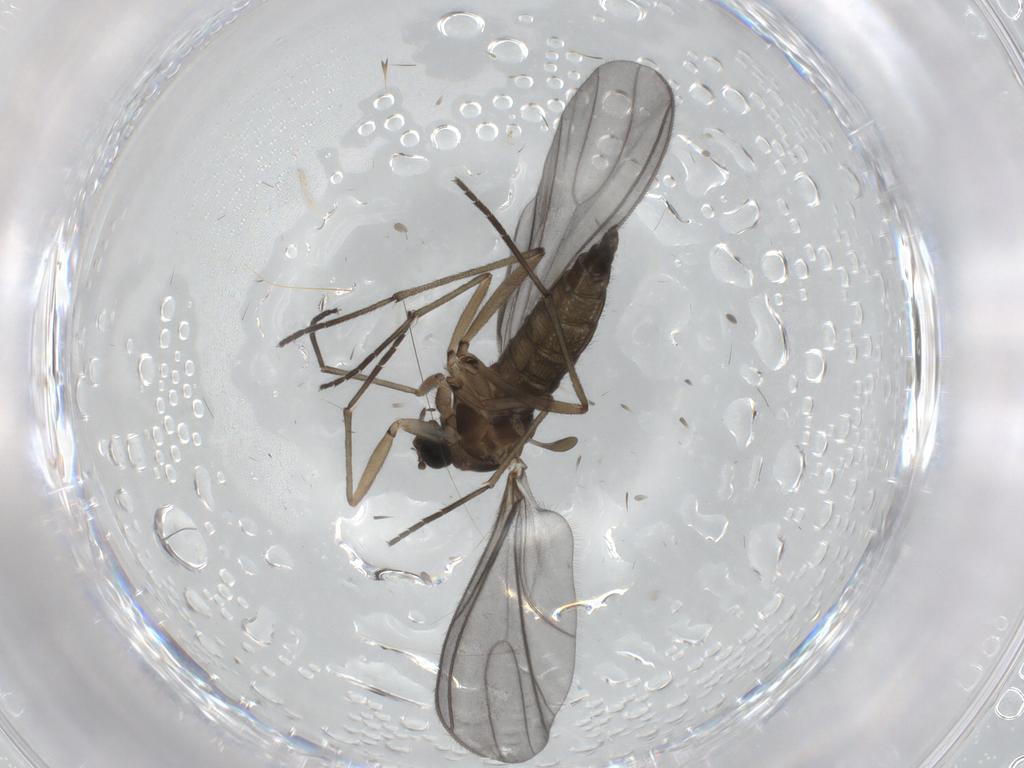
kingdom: Animalia
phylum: Arthropoda
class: Insecta
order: Diptera
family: Sciaridae
